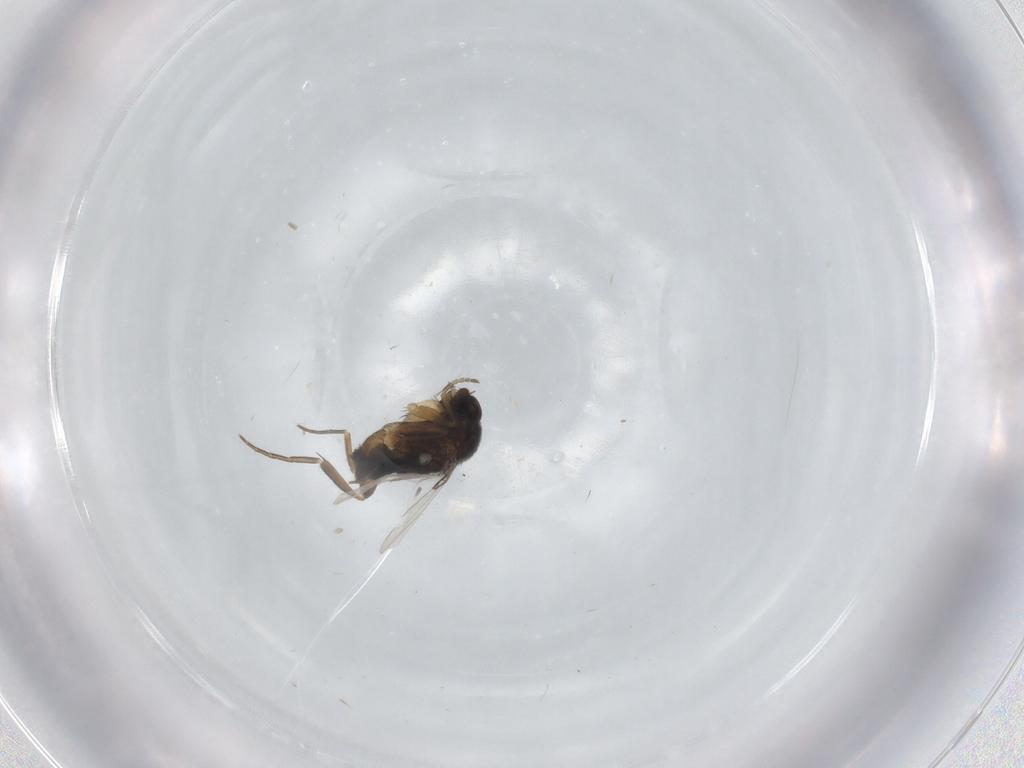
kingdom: Animalia
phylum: Arthropoda
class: Insecta
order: Diptera
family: Phoridae
